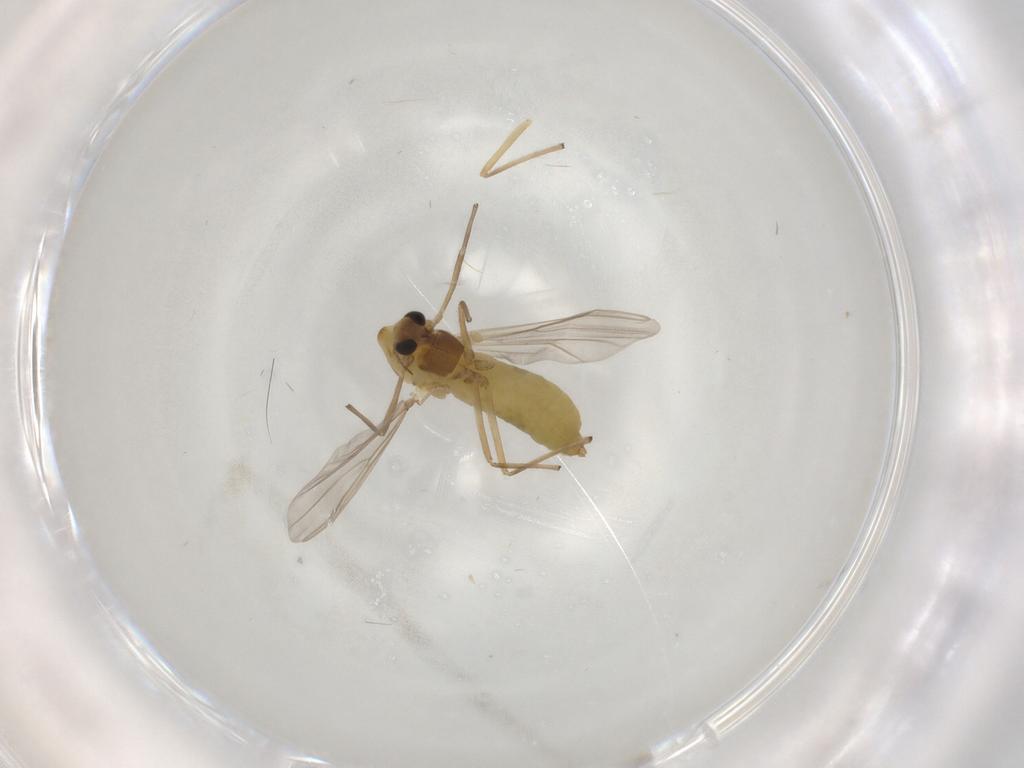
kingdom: Animalia
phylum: Arthropoda
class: Insecta
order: Diptera
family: Chironomidae
